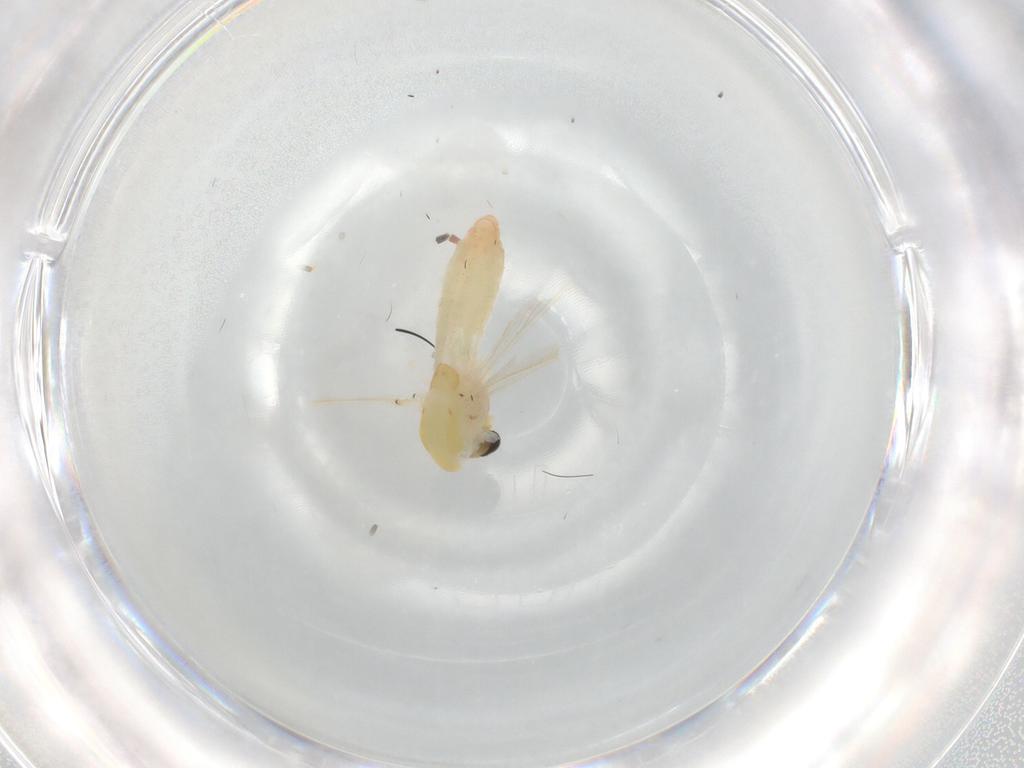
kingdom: Animalia
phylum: Arthropoda
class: Insecta
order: Diptera
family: Chironomidae
